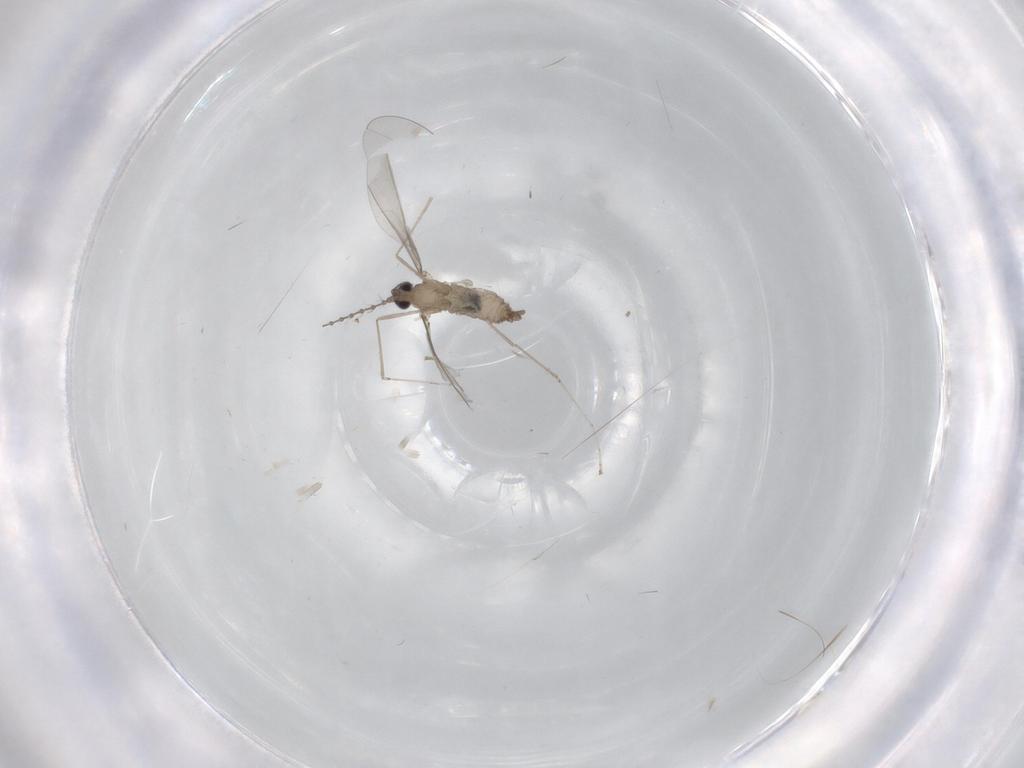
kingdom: Animalia
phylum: Arthropoda
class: Insecta
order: Diptera
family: Cecidomyiidae
